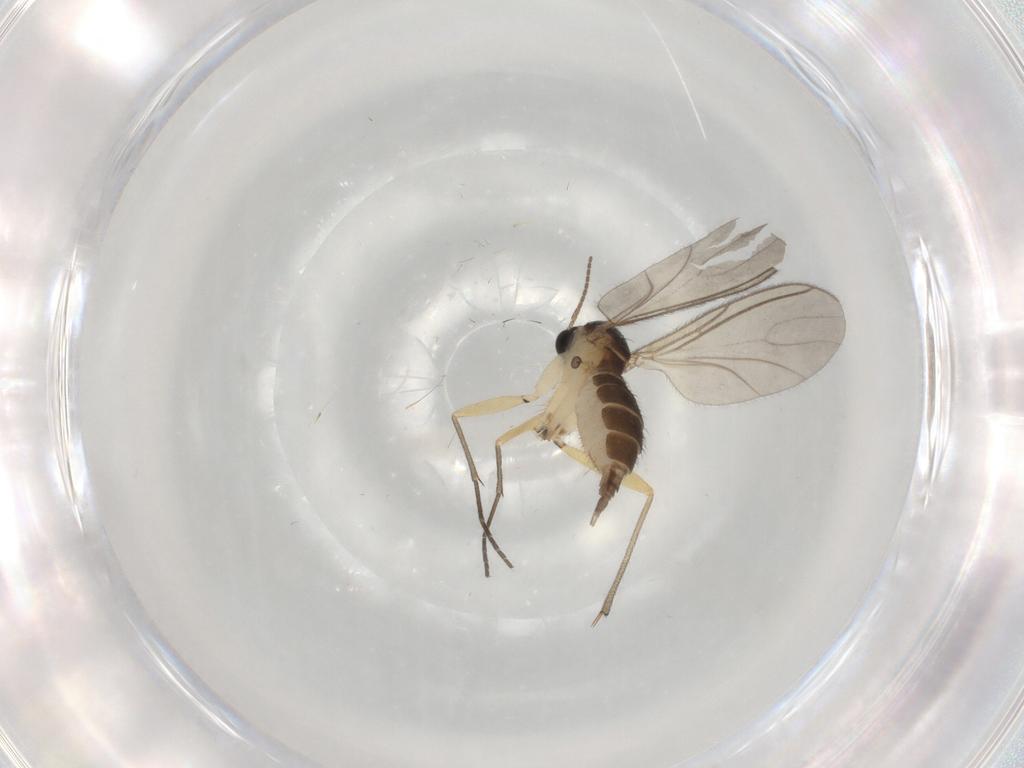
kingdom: Animalia
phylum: Arthropoda
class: Insecta
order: Diptera
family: Sciaridae
